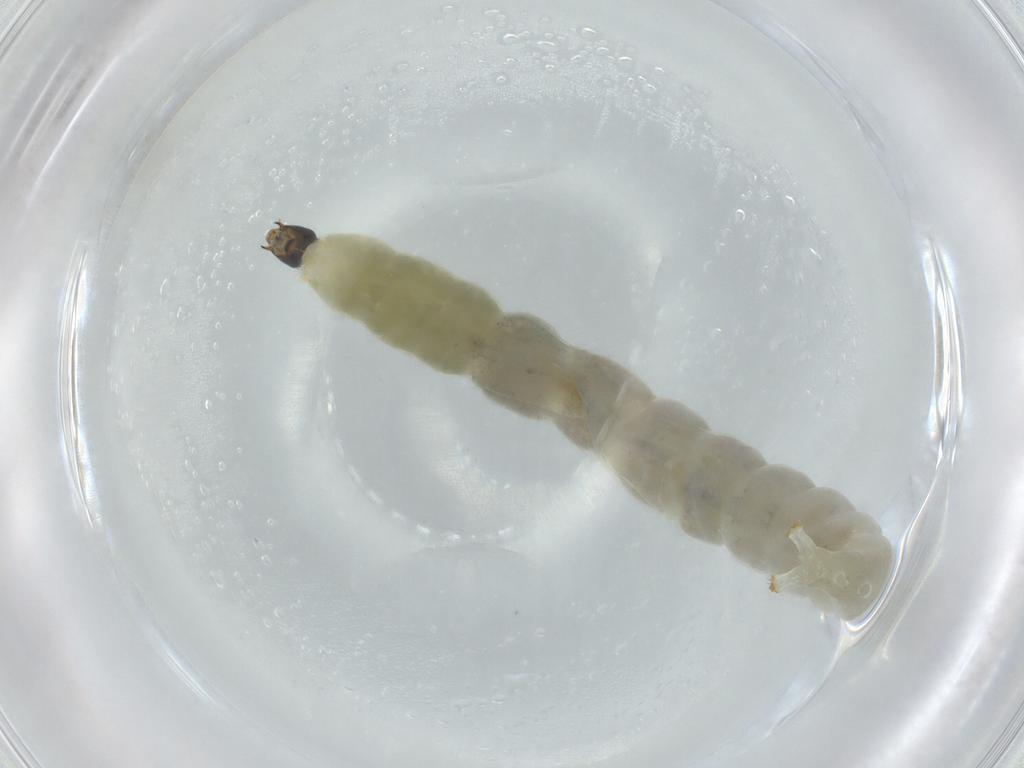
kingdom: Animalia
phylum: Arthropoda
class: Insecta
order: Diptera
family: Chironomidae
